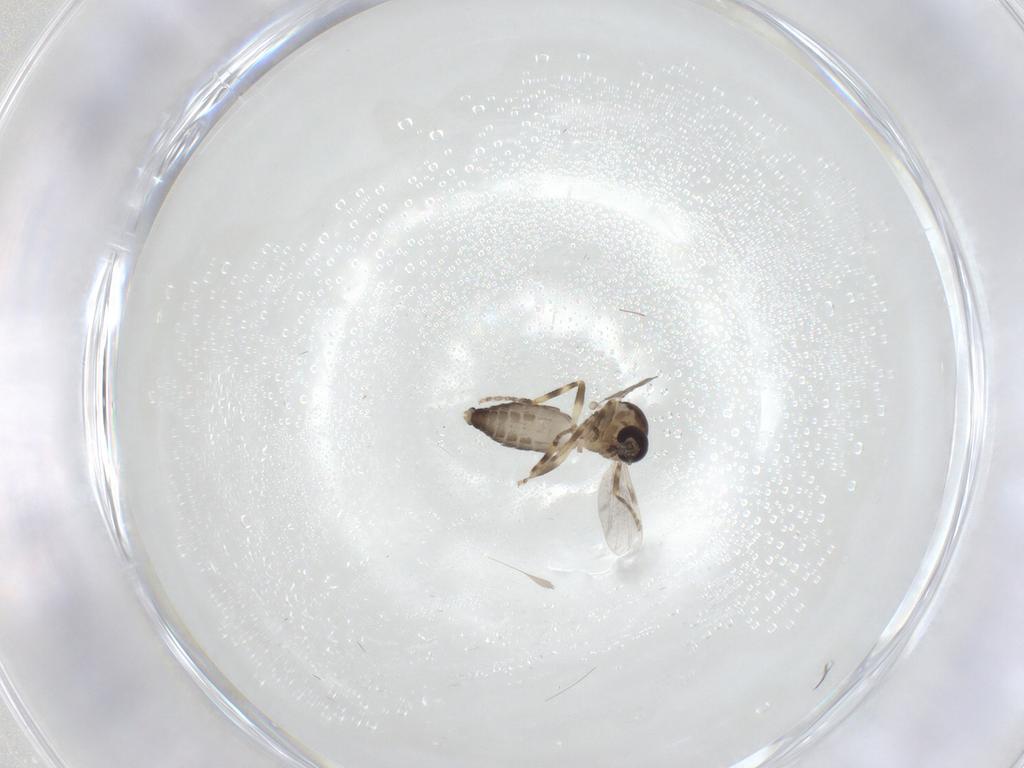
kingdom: Animalia
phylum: Arthropoda
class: Insecta
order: Diptera
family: Ceratopogonidae
